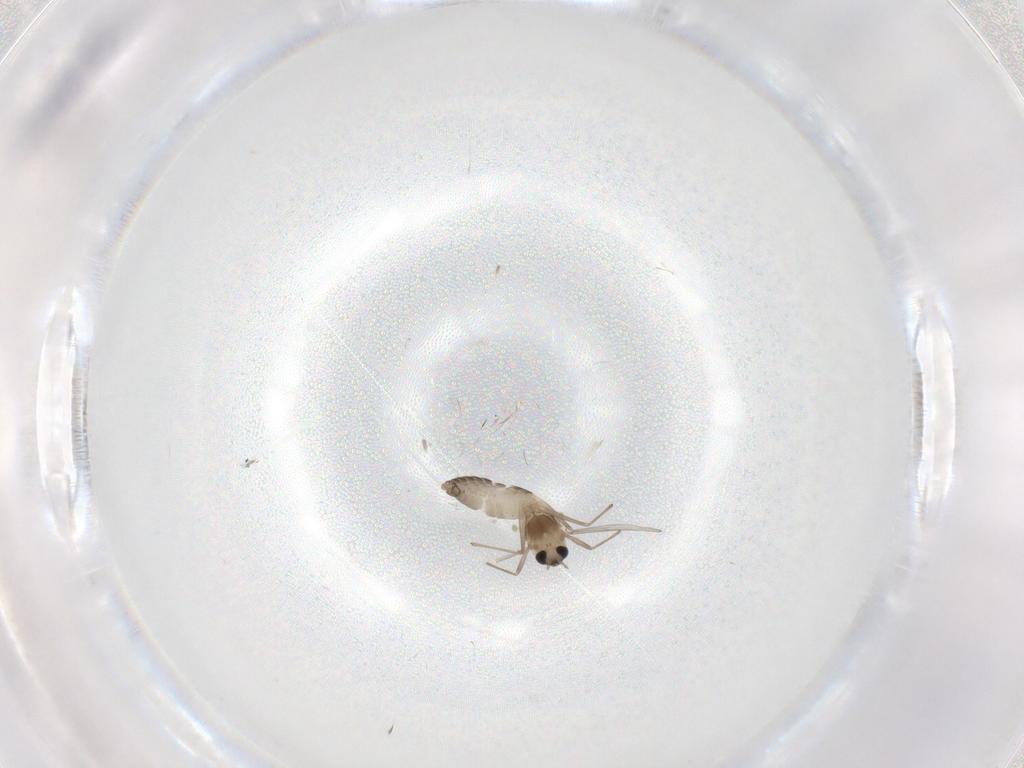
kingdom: Animalia
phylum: Arthropoda
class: Insecta
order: Diptera
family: Chironomidae
